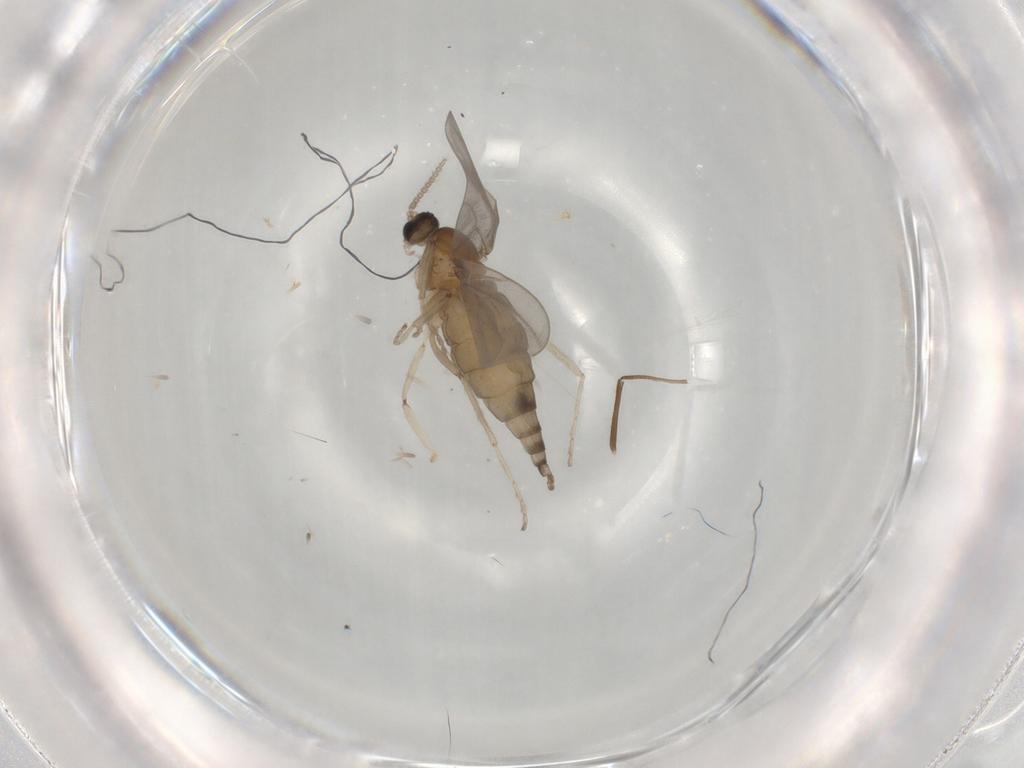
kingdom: Animalia
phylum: Arthropoda
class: Insecta
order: Diptera
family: Cecidomyiidae
